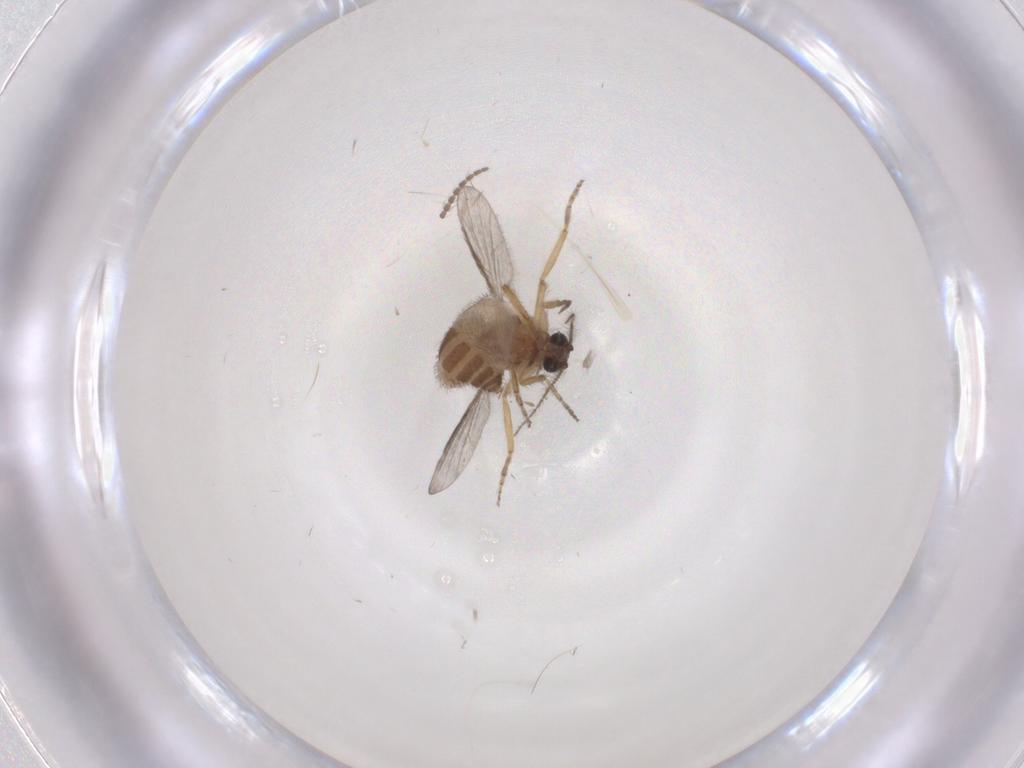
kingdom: Animalia
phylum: Arthropoda
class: Insecta
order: Diptera
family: Ceratopogonidae
